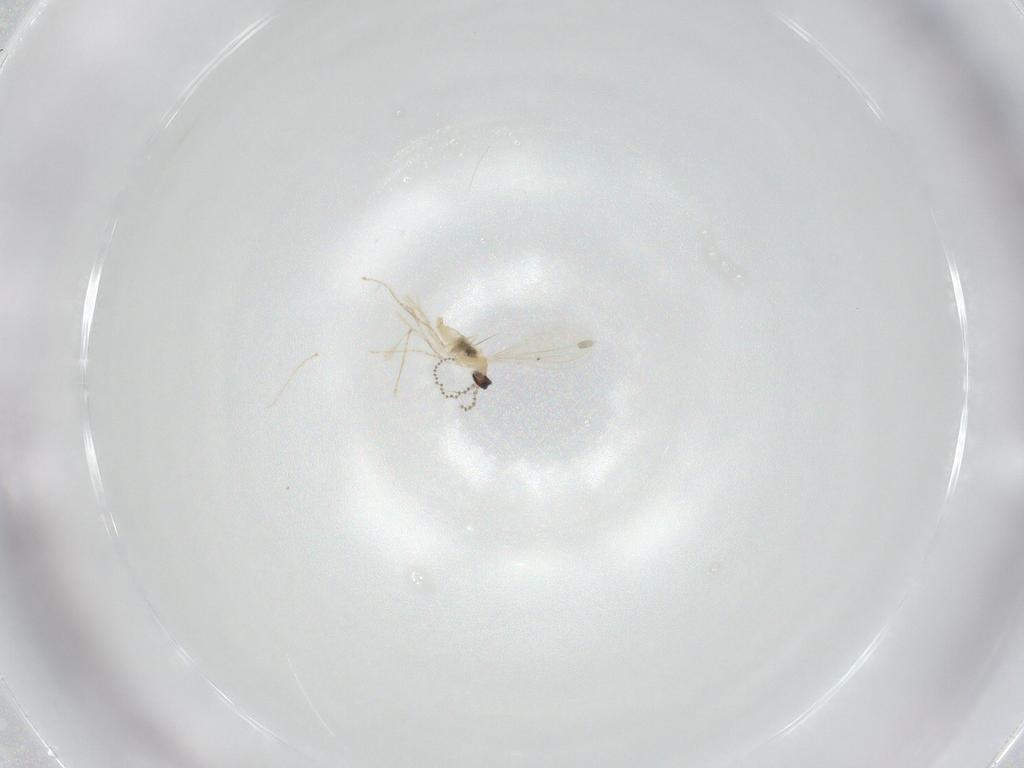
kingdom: Animalia
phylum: Arthropoda
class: Insecta
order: Diptera
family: Cecidomyiidae
